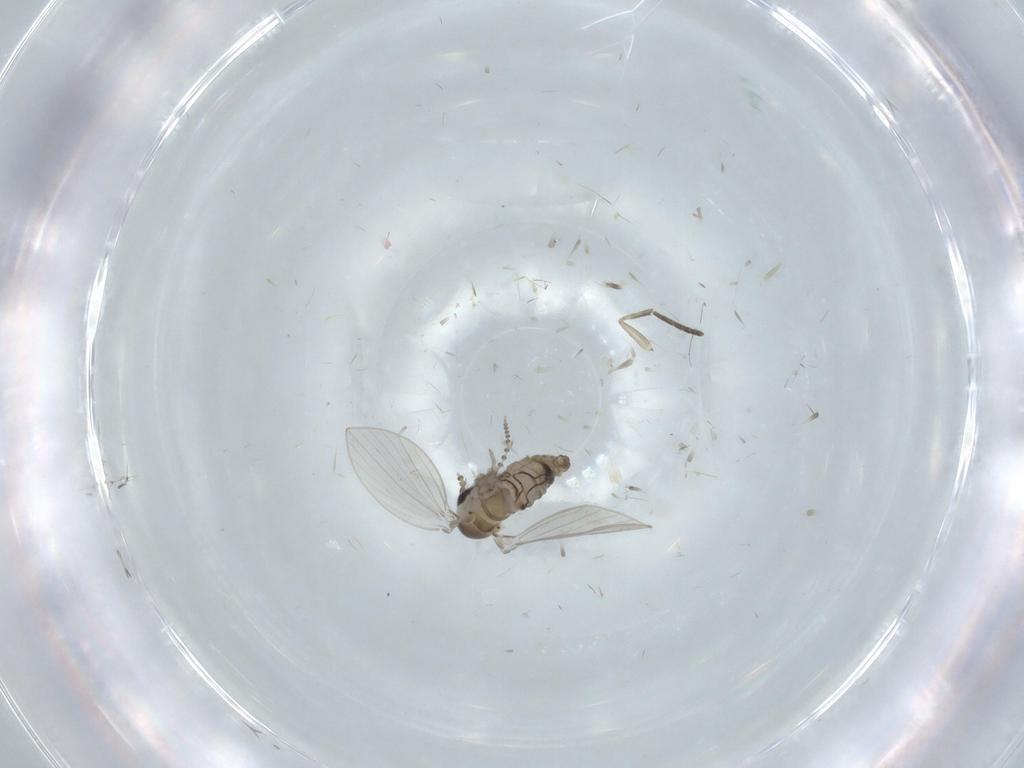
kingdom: Animalia
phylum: Arthropoda
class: Insecta
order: Diptera
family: Psychodidae
